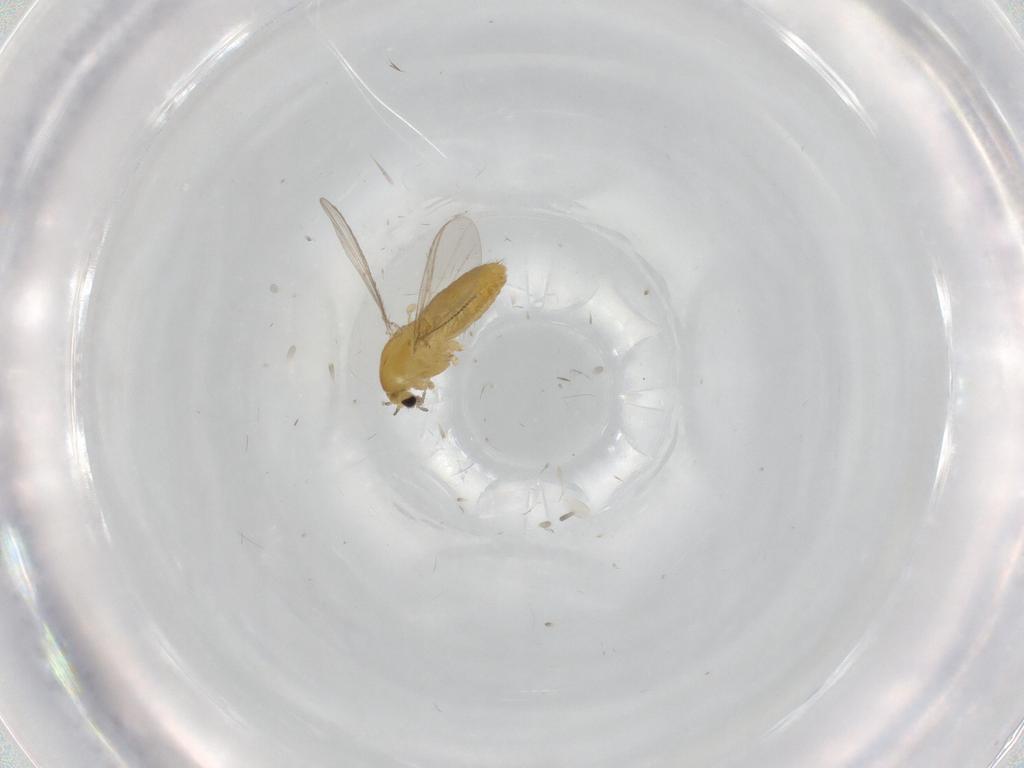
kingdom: Animalia
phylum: Arthropoda
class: Insecta
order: Diptera
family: Chironomidae
